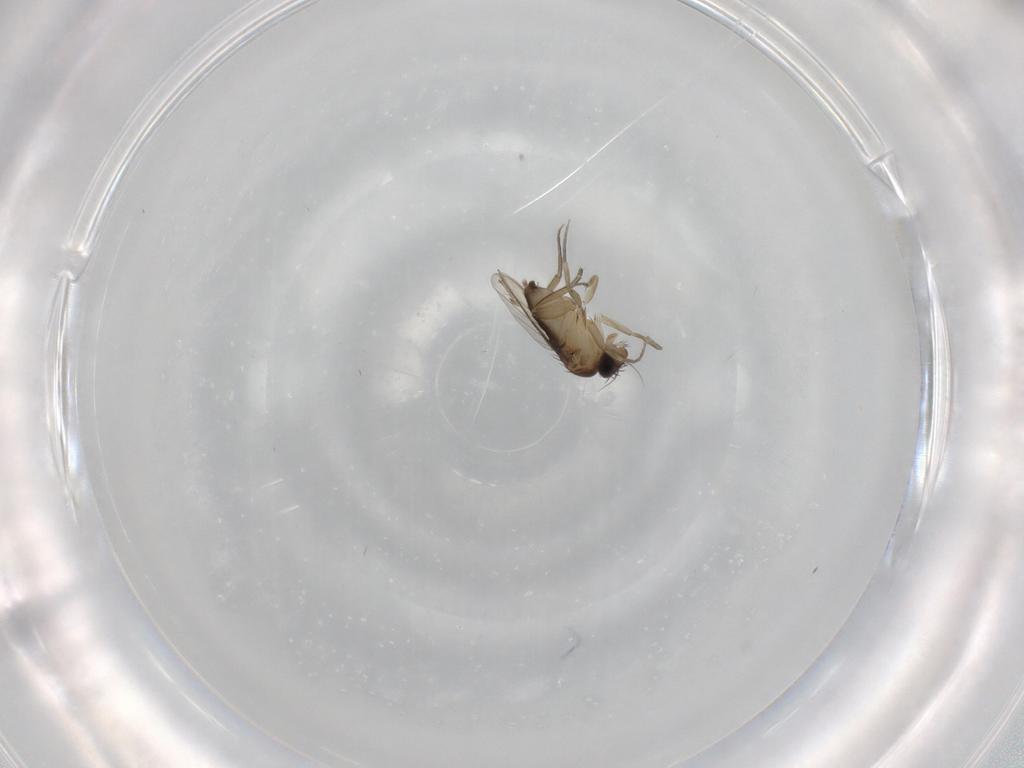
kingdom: Animalia
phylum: Arthropoda
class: Insecta
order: Diptera
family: Phoridae
